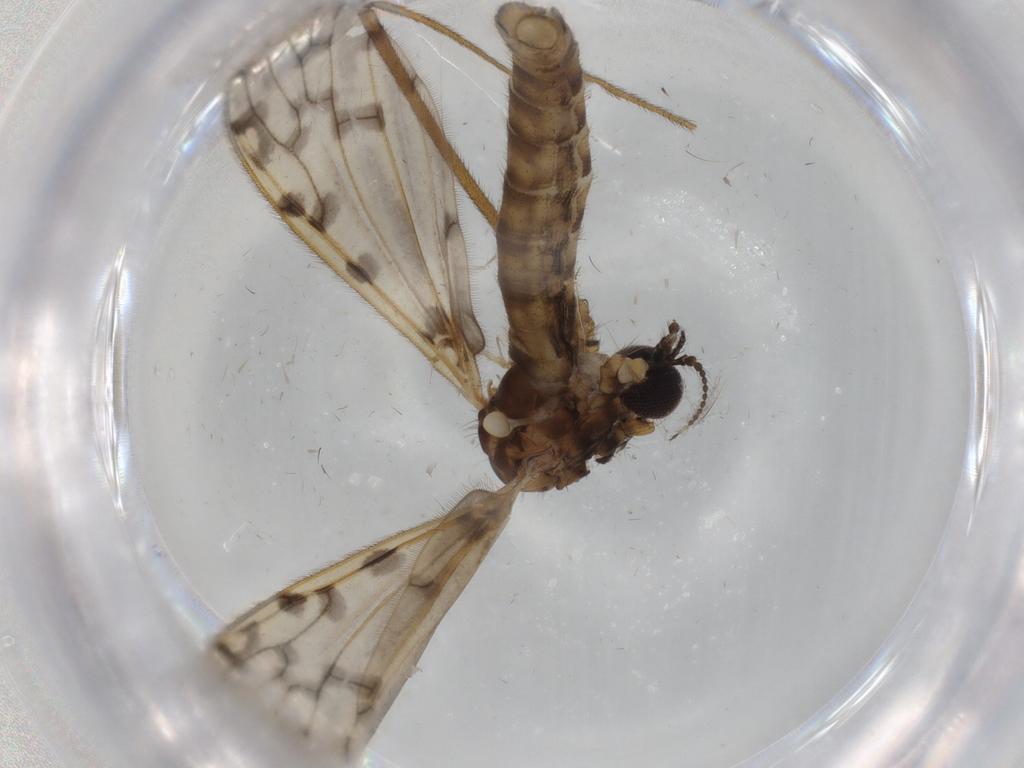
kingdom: Animalia
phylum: Arthropoda
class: Insecta
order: Diptera
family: Psychodidae
